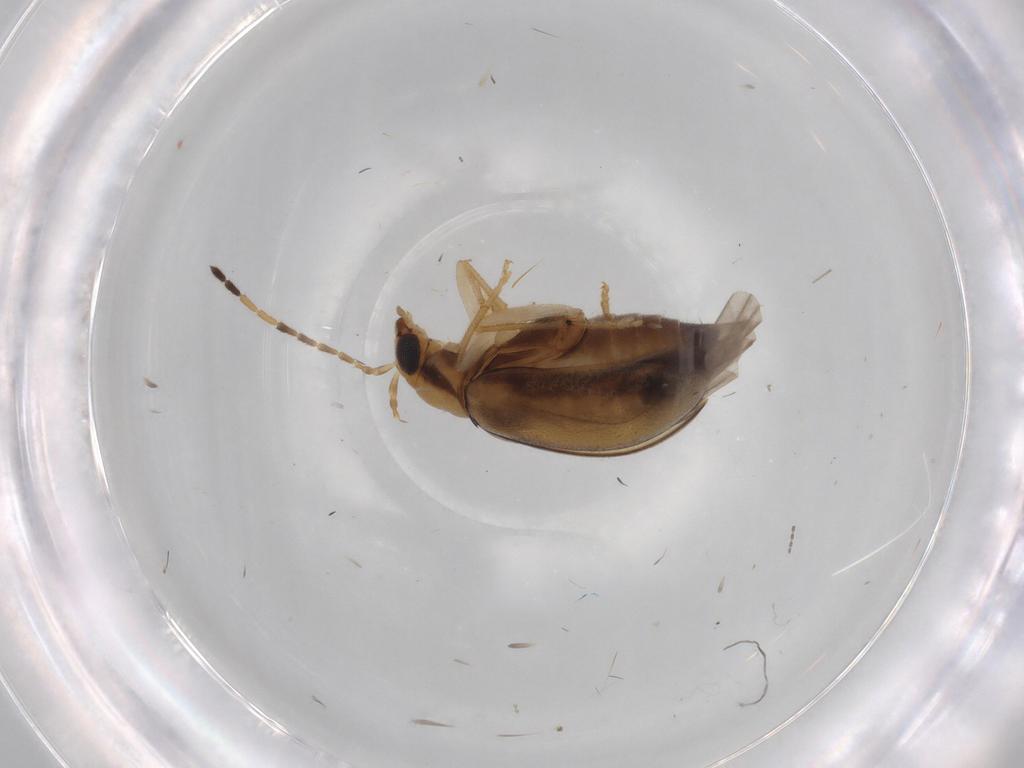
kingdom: Animalia
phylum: Arthropoda
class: Insecta
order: Coleoptera
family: Chrysomelidae
